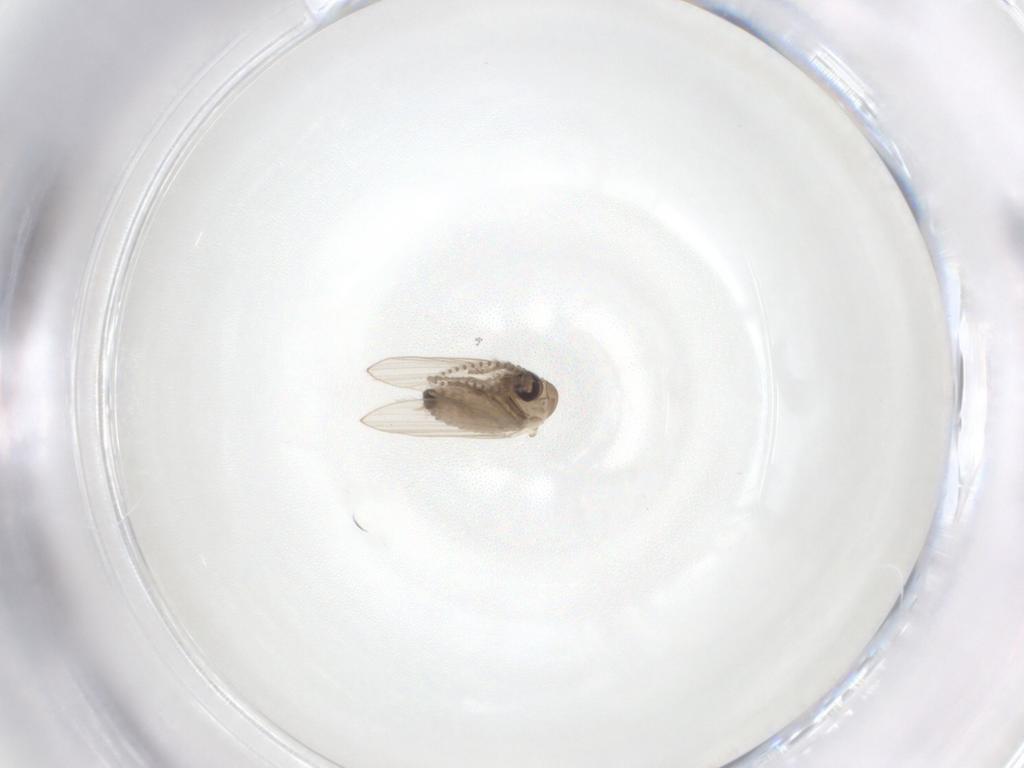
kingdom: Animalia
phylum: Arthropoda
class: Insecta
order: Diptera
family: Psychodidae
